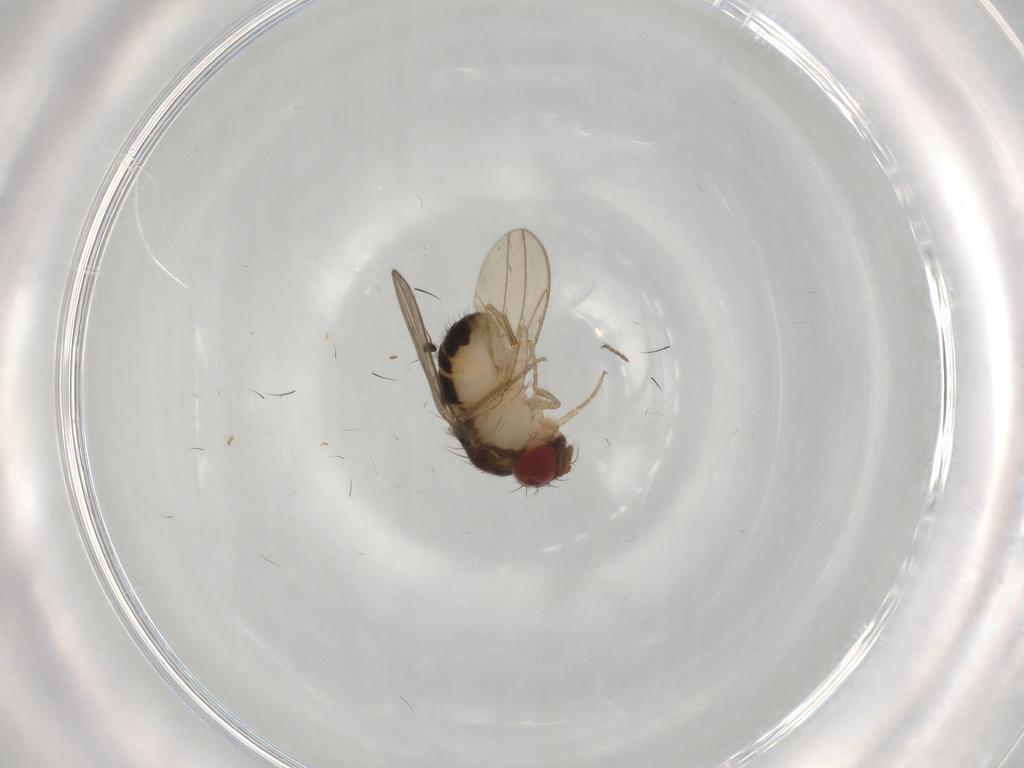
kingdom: Animalia
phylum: Arthropoda
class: Insecta
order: Diptera
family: Drosophilidae
